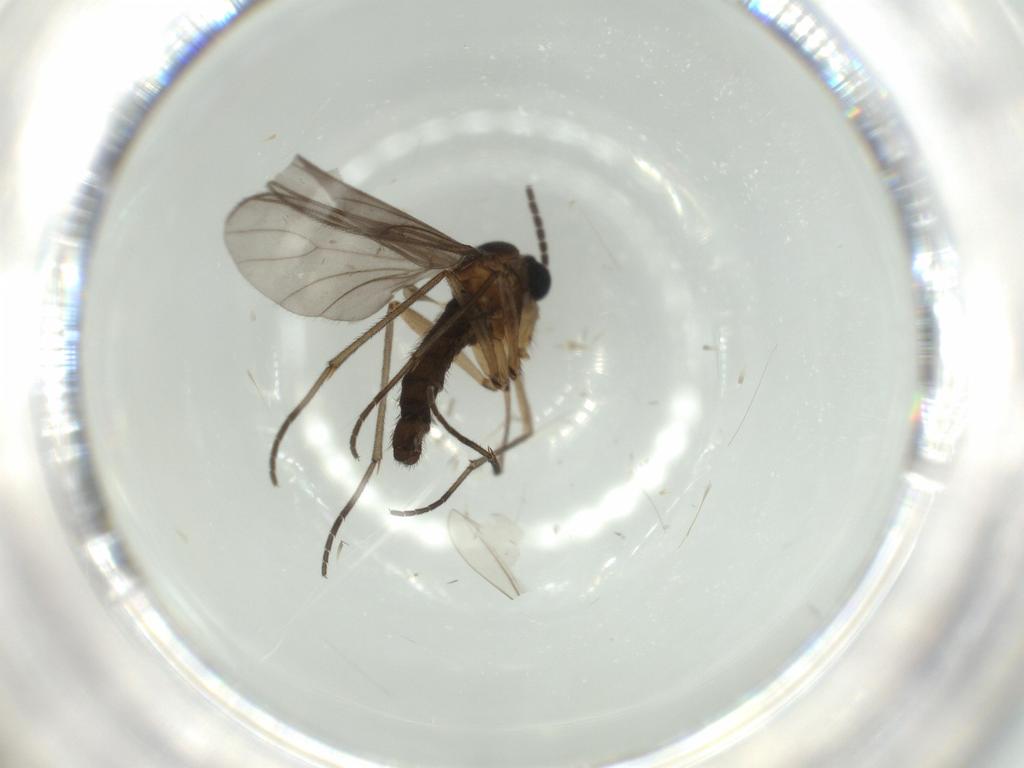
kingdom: Animalia
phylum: Arthropoda
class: Insecta
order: Diptera
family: Sciaridae
